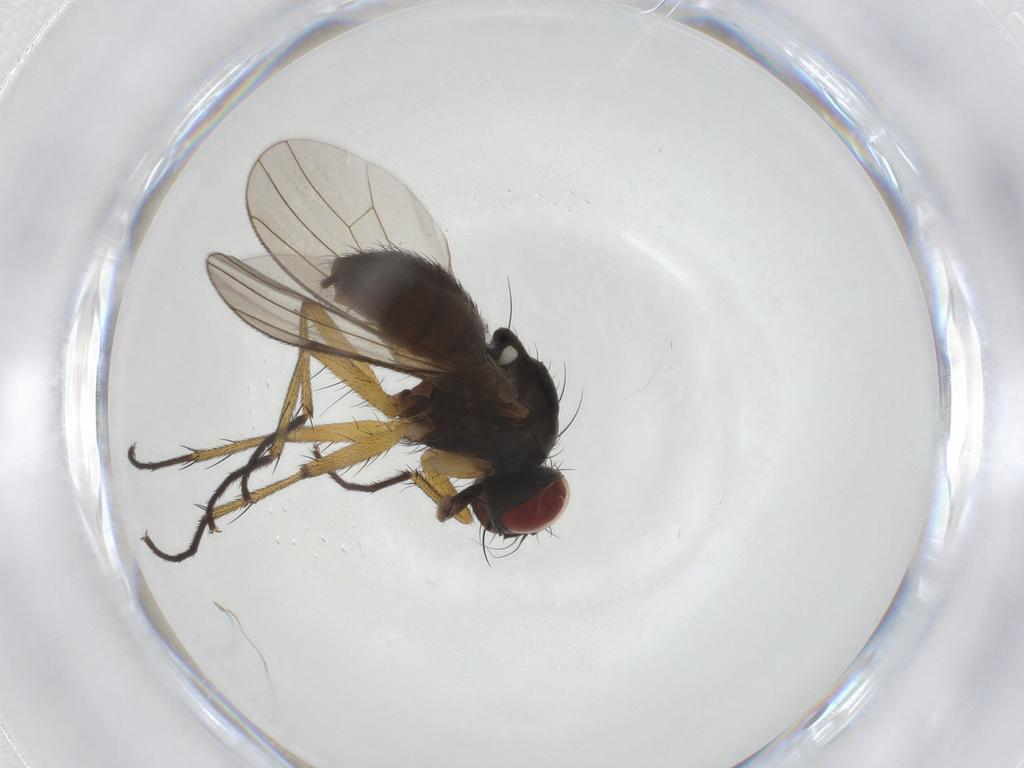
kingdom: Animalia
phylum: Arthropoda
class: Insecta
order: Diptera
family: Muscidae
